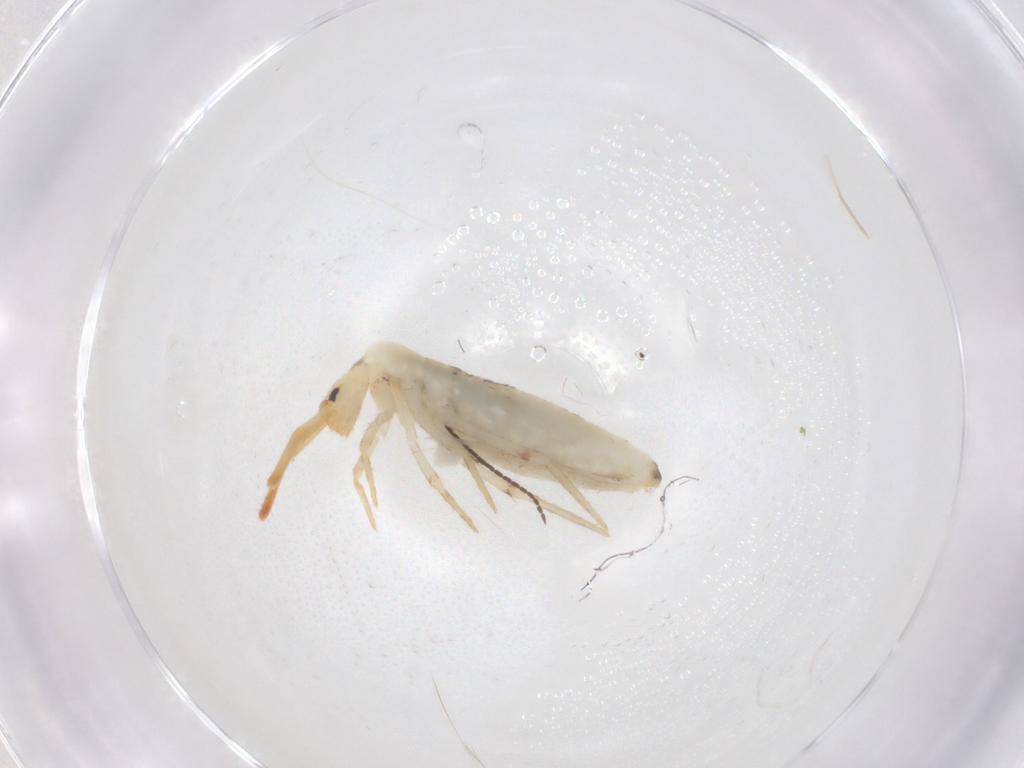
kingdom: Animalia
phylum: Arthropoda
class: Collembola
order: Poduromorpha
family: Hypogastruridae
